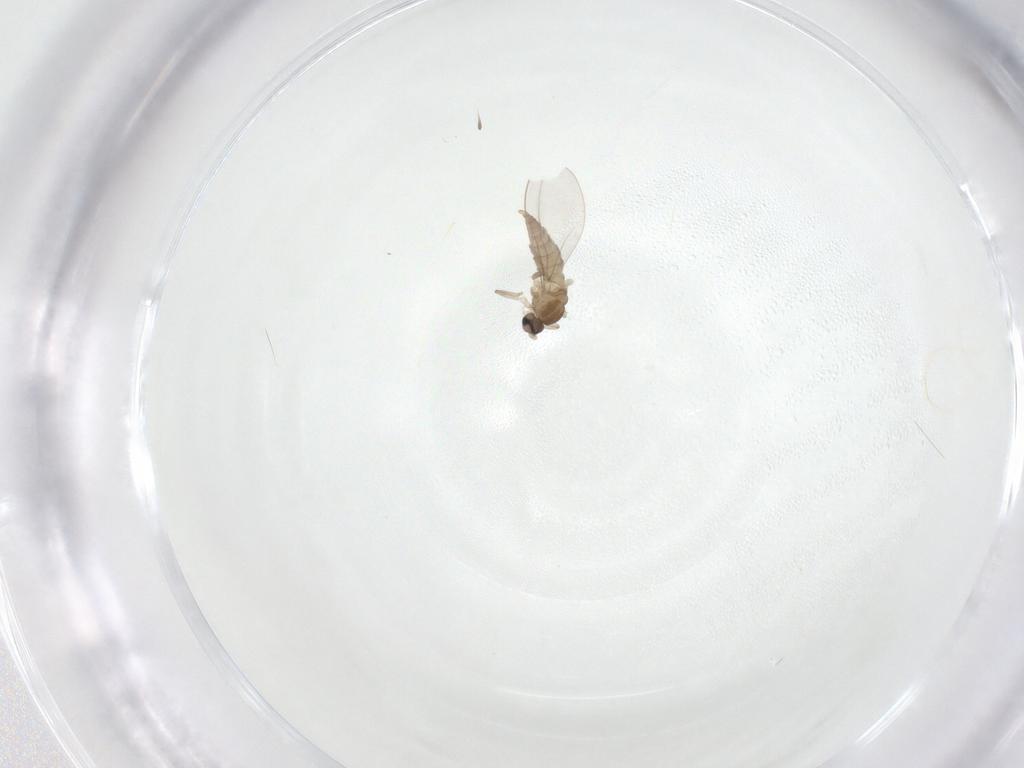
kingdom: Animalia
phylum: Arthropoda
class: Insecta
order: Diptera
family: Cecidomyiidae
